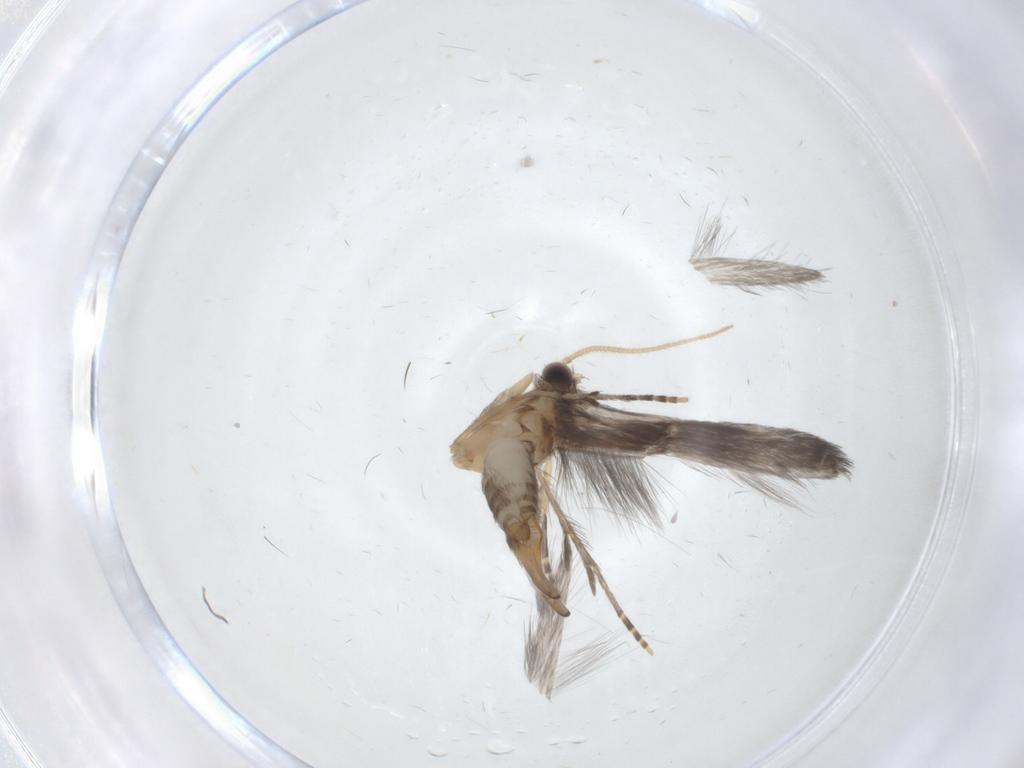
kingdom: Animalia
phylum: Arthropoda
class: Insecta
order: Trichoptera
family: Hydroptilidae
